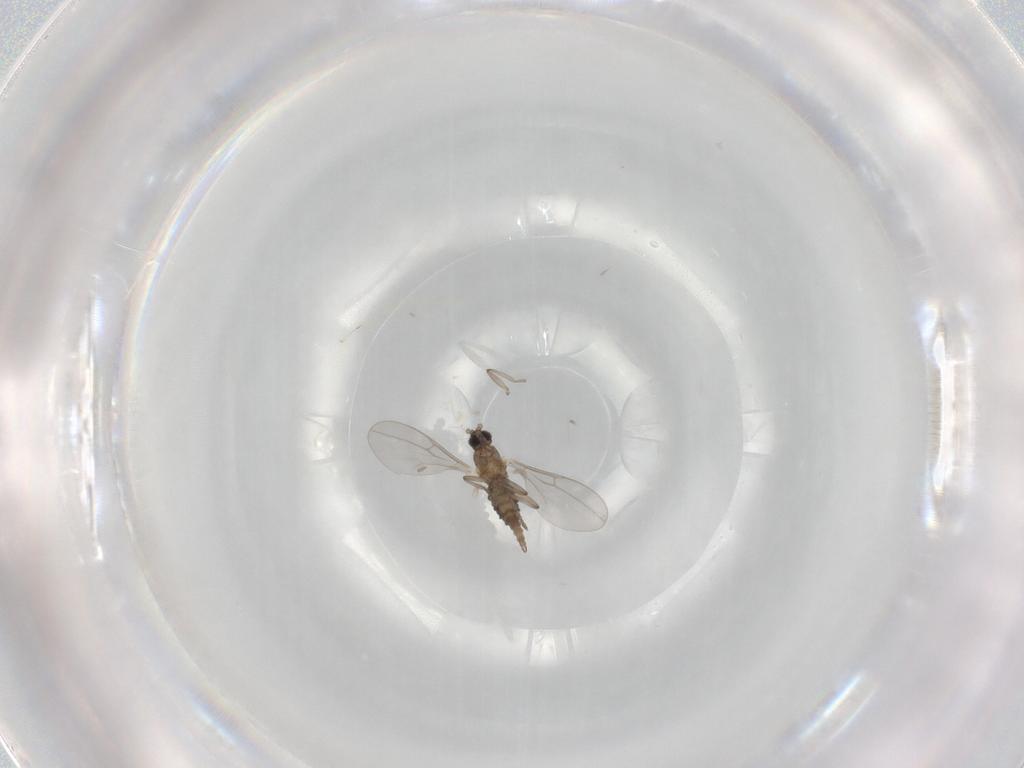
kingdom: Animalia
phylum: Arthropoda
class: Insecta
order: Diptera
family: Cecidomyiidae
